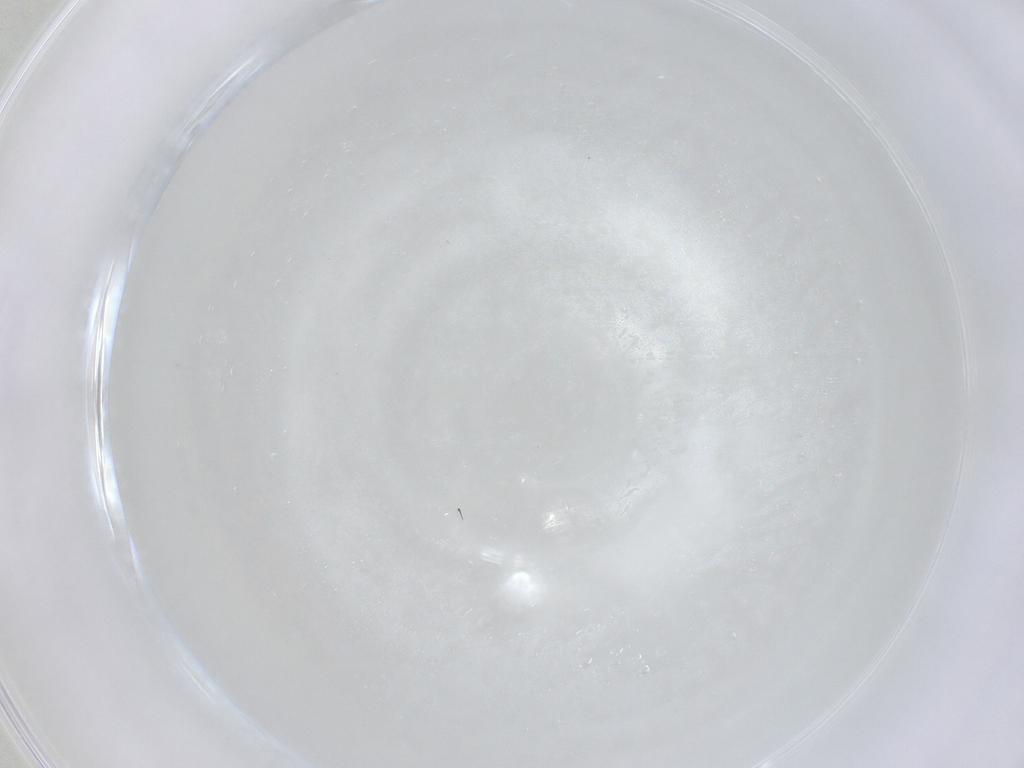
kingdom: Animalia
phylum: Arthropoda
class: Insecta
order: Psocodea
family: Caeciliusidae
